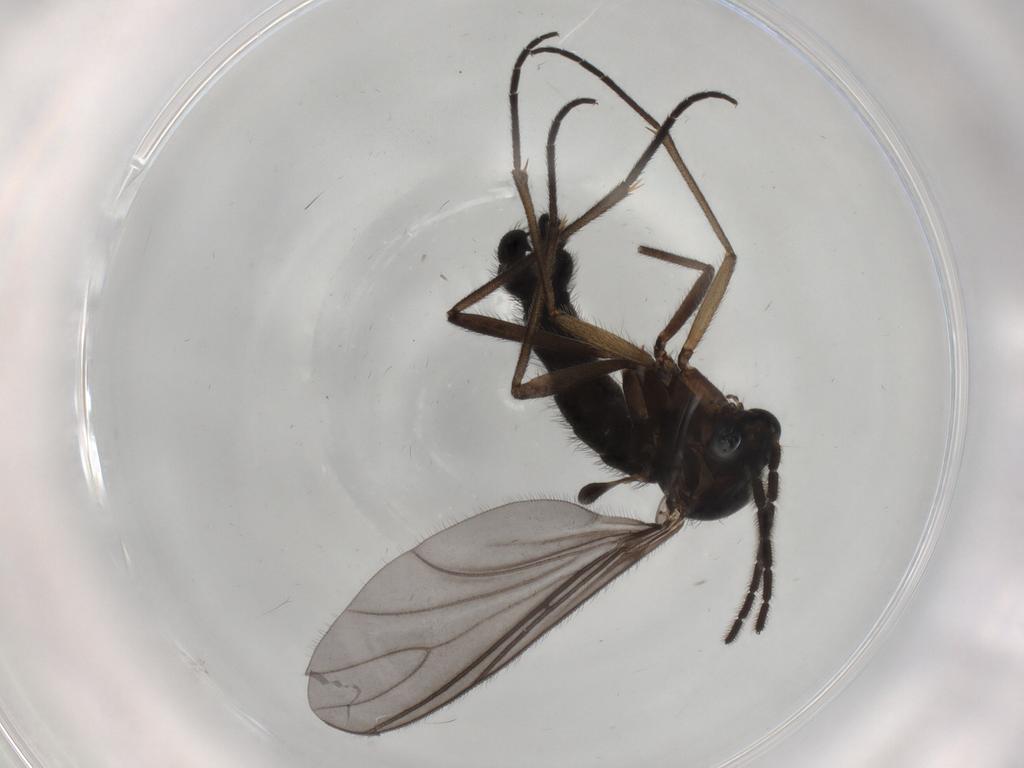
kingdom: Animalia
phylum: Arthropoda
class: Insecta
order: Diptera
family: Sciaridae
